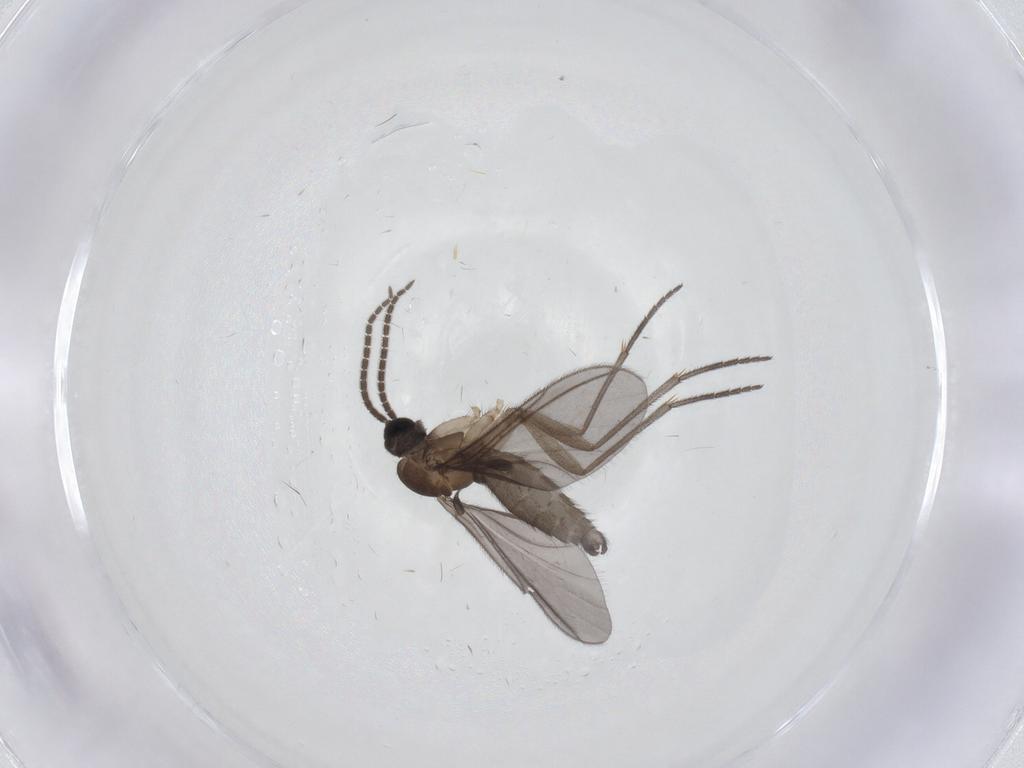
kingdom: Animalia
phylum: Arthropoda
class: Insecta
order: Diptera
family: Sciaridae
